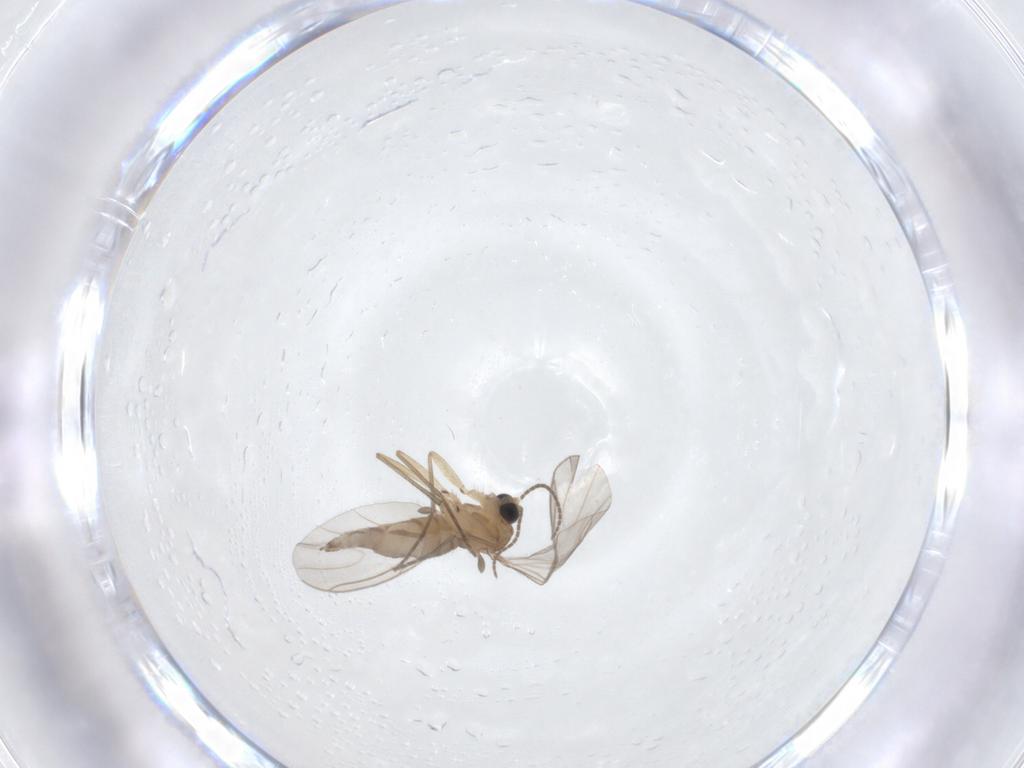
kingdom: Animalia
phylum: Arthropoda
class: Insecta
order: Diptera
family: Sciaridae
